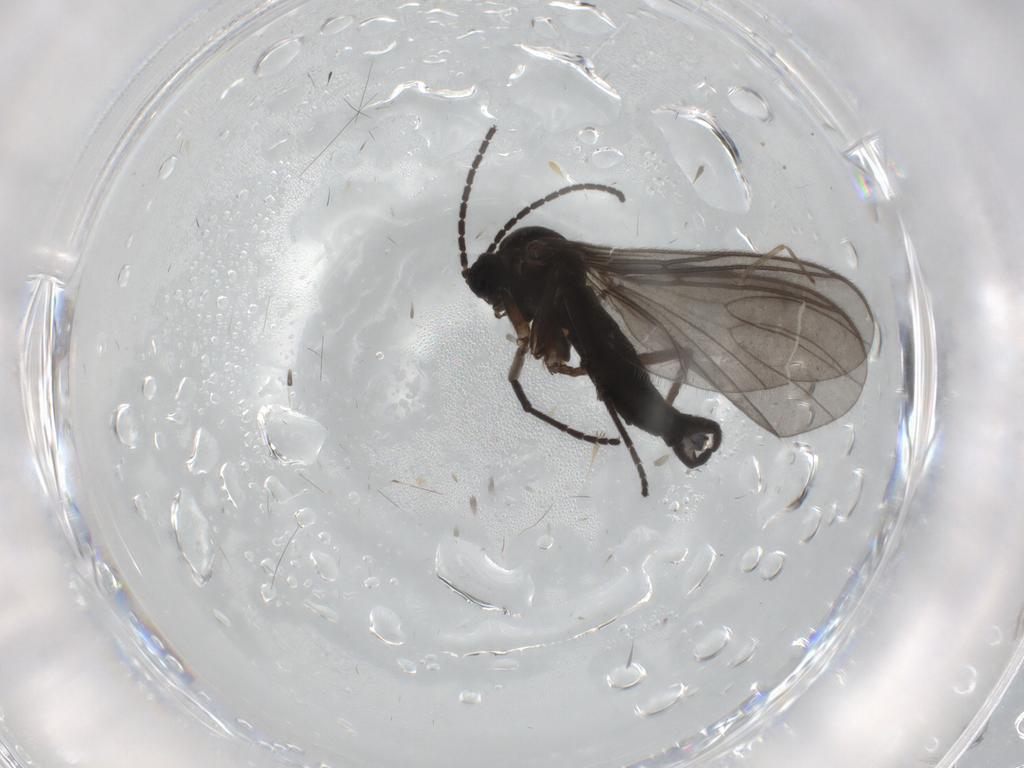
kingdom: Animalia
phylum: Arthropoda
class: Insecta
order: Diptera
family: Sciaridae
